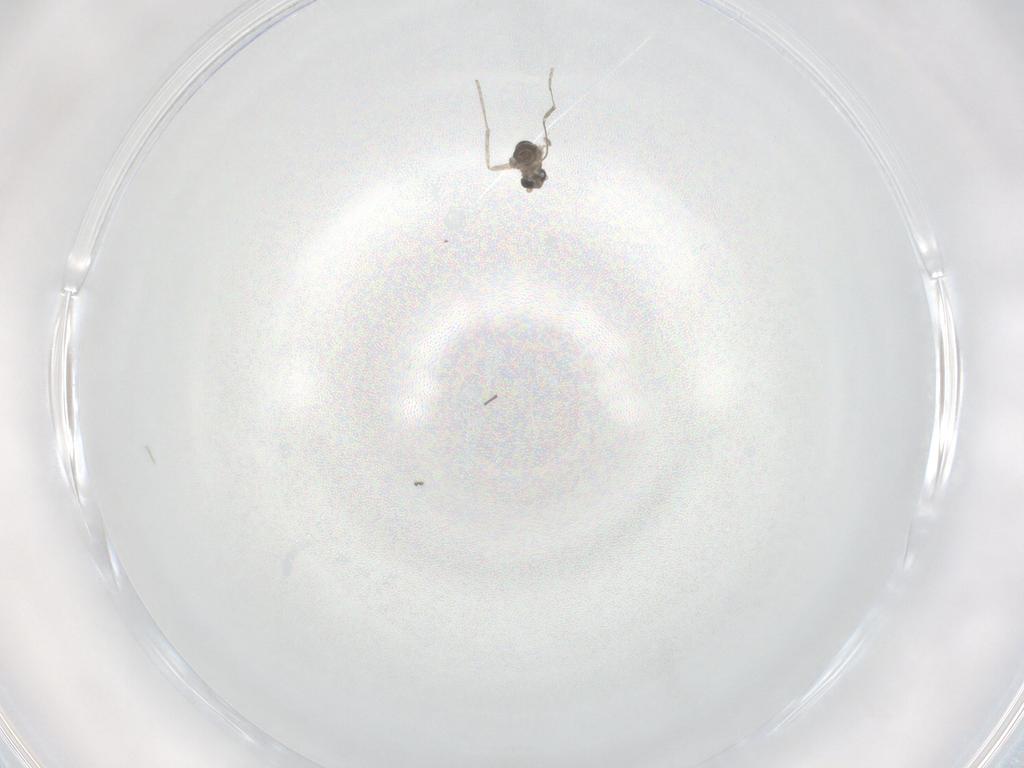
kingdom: Animalia
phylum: Arthropoda
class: Insecta
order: Diptera
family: Chironomidae
